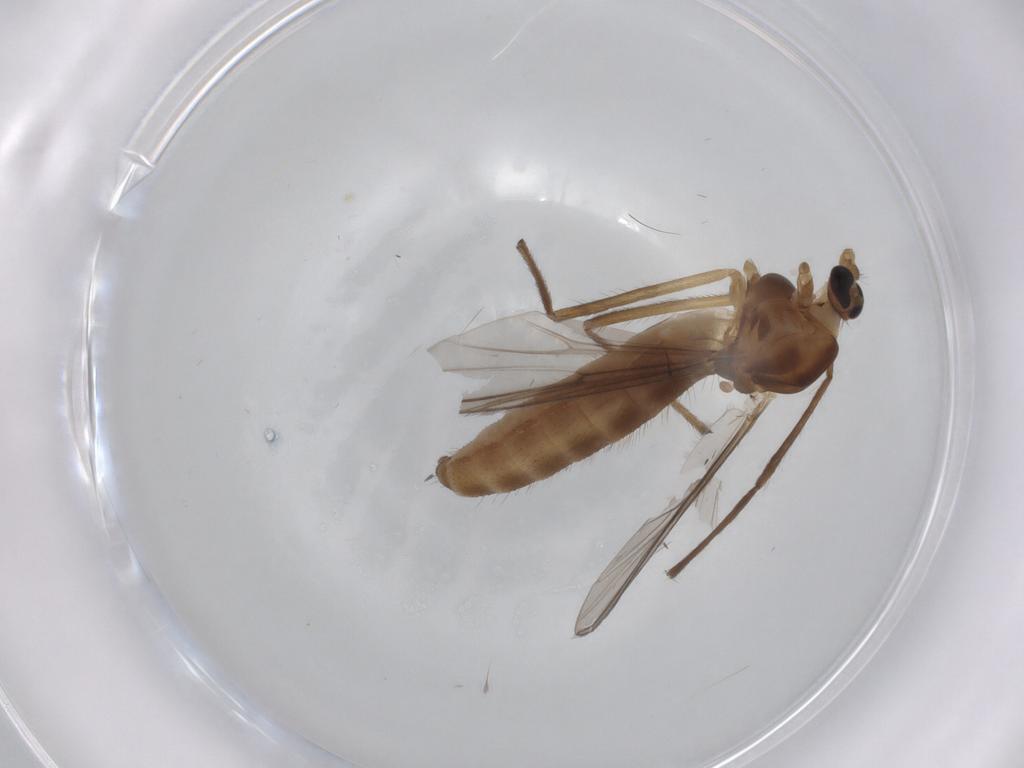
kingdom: Animalia
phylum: Arthropoda
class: Insecta
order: Diptera
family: Chironomidae
